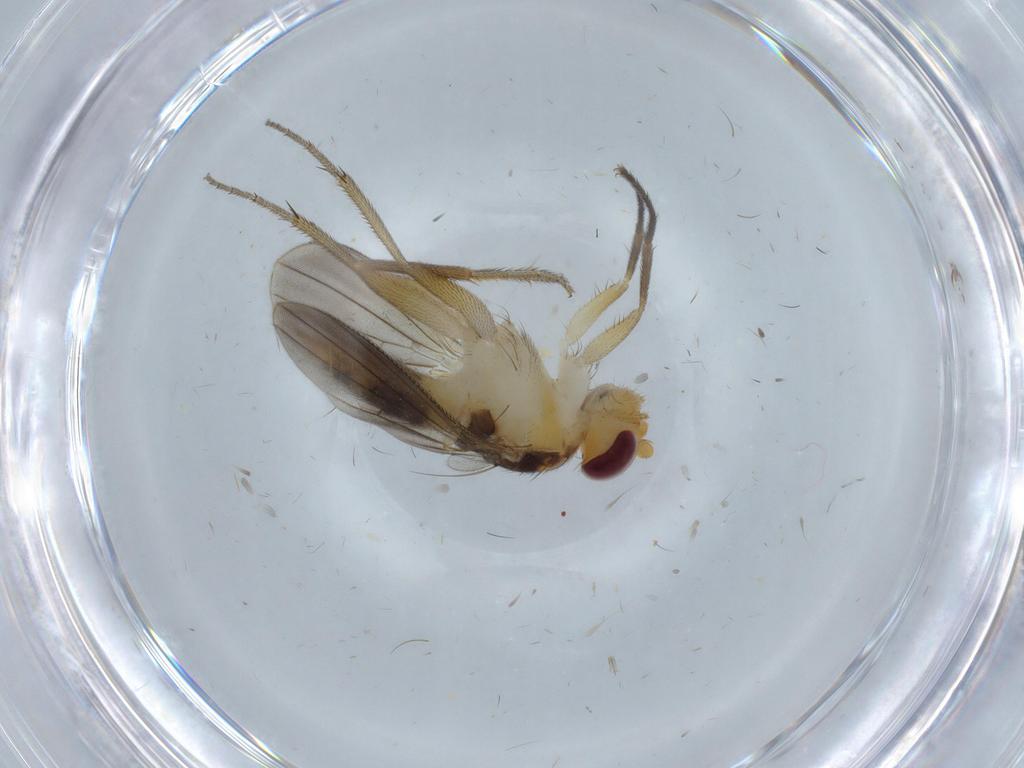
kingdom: Animalia
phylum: Arthropoda
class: Insecta
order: Diptera
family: Clusiidae
